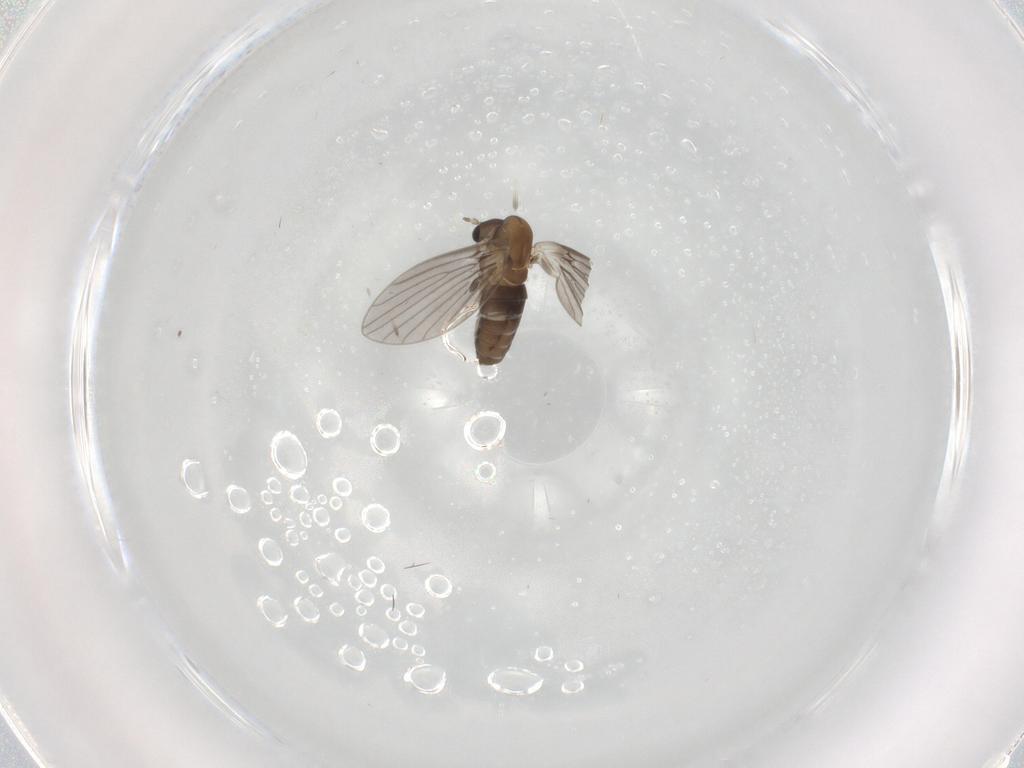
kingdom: Animalia
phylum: Arthropoda
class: Insecta
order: Diptera
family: Psychodidae
